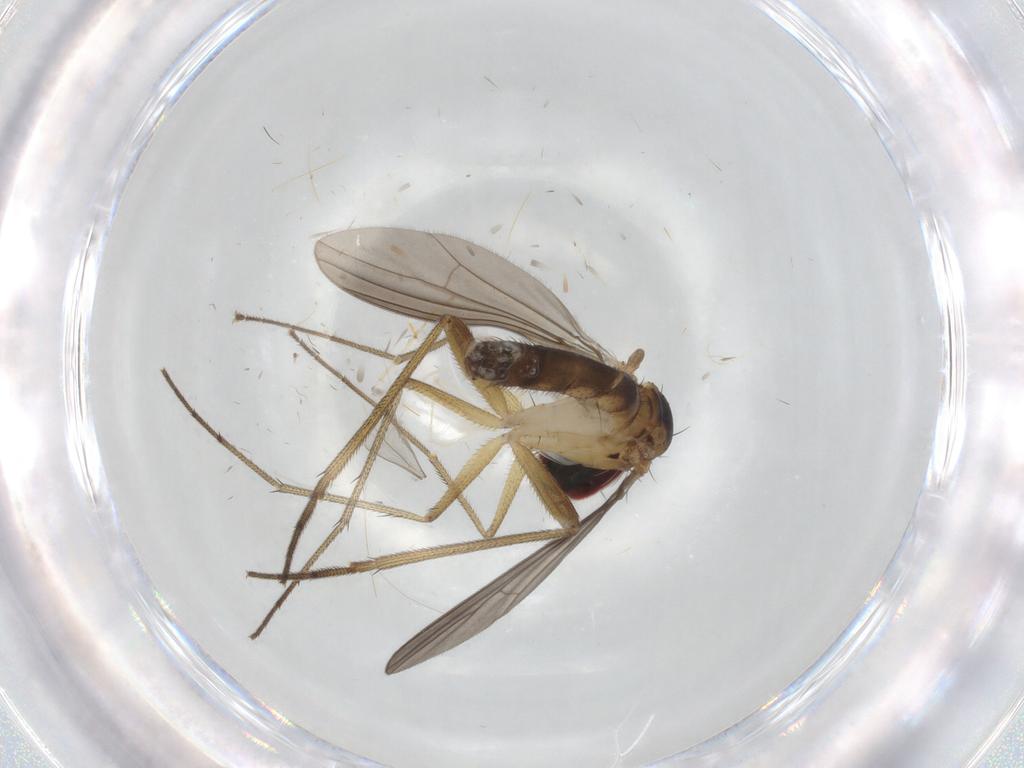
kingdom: Animalia
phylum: Arthropoda
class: Insecta
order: Diptera
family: Dolichopodidae
